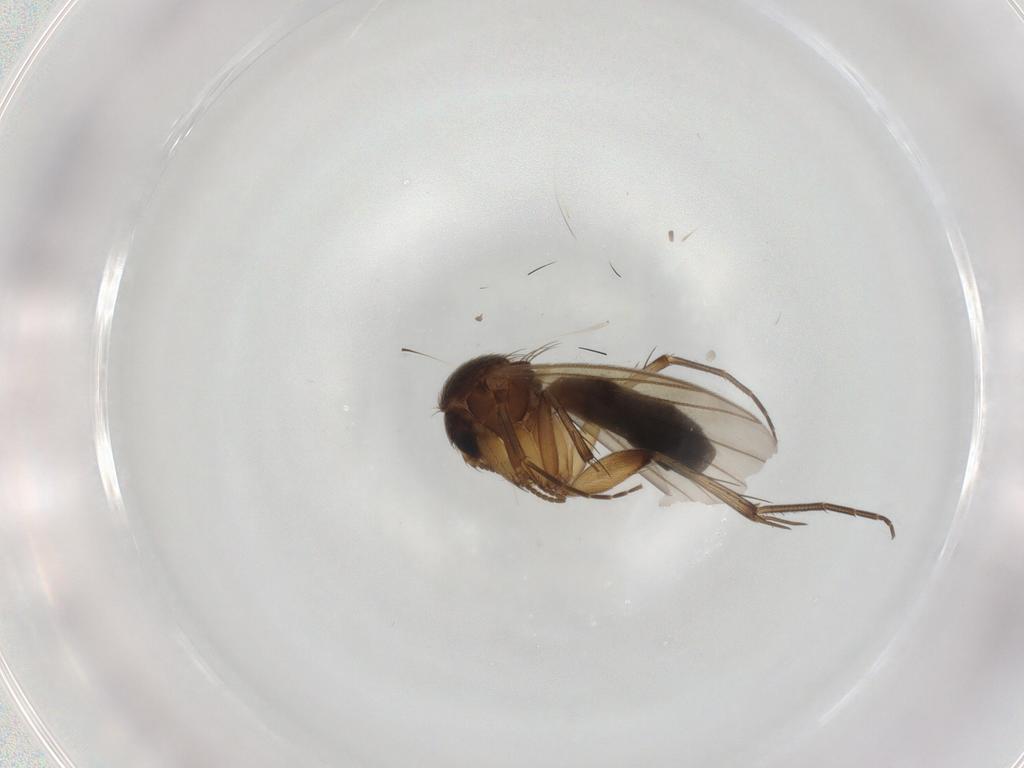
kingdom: Animalia
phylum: Arthropoda
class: Insecta
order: Diptera
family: Mycetophilidae
